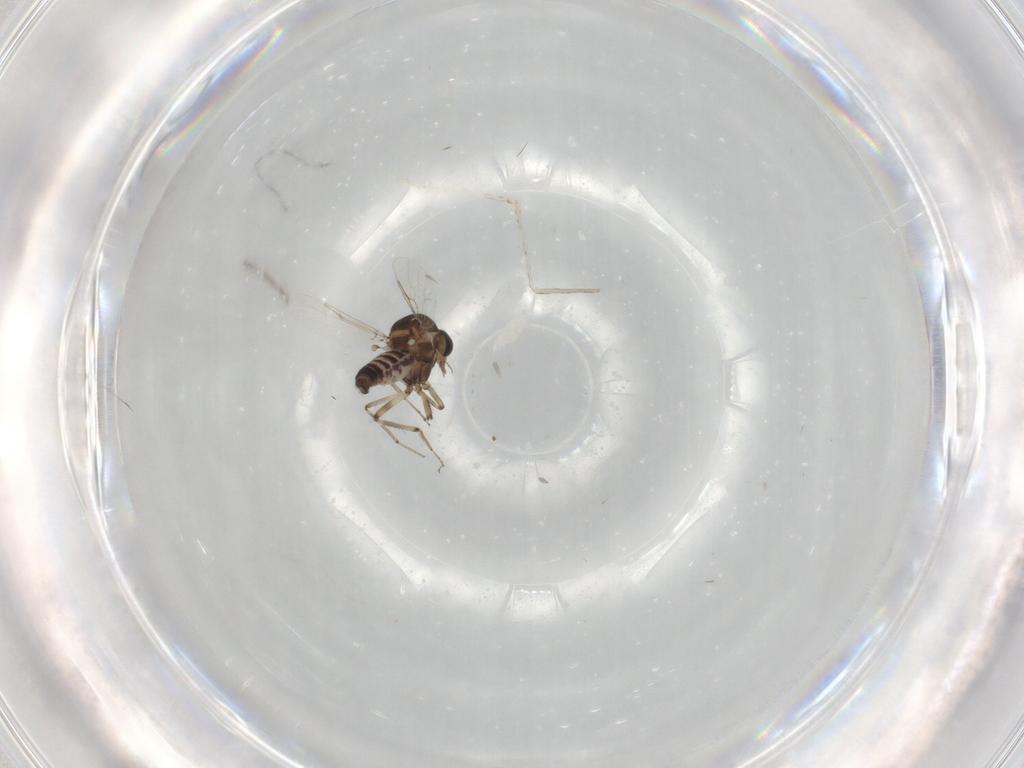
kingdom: Animalia
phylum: Arthropoda
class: Insecta
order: Diptera
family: Ceratopogonidae
